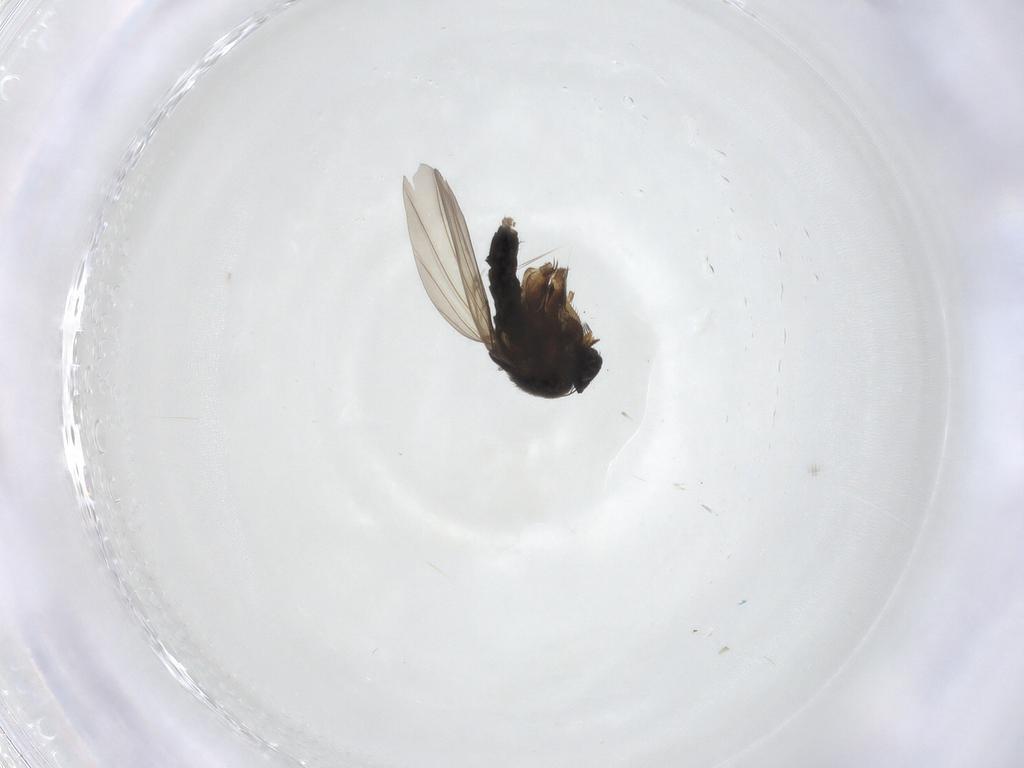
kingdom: Animalia
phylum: Arthropoda
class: Insecta
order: Diptera
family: Phoridae
